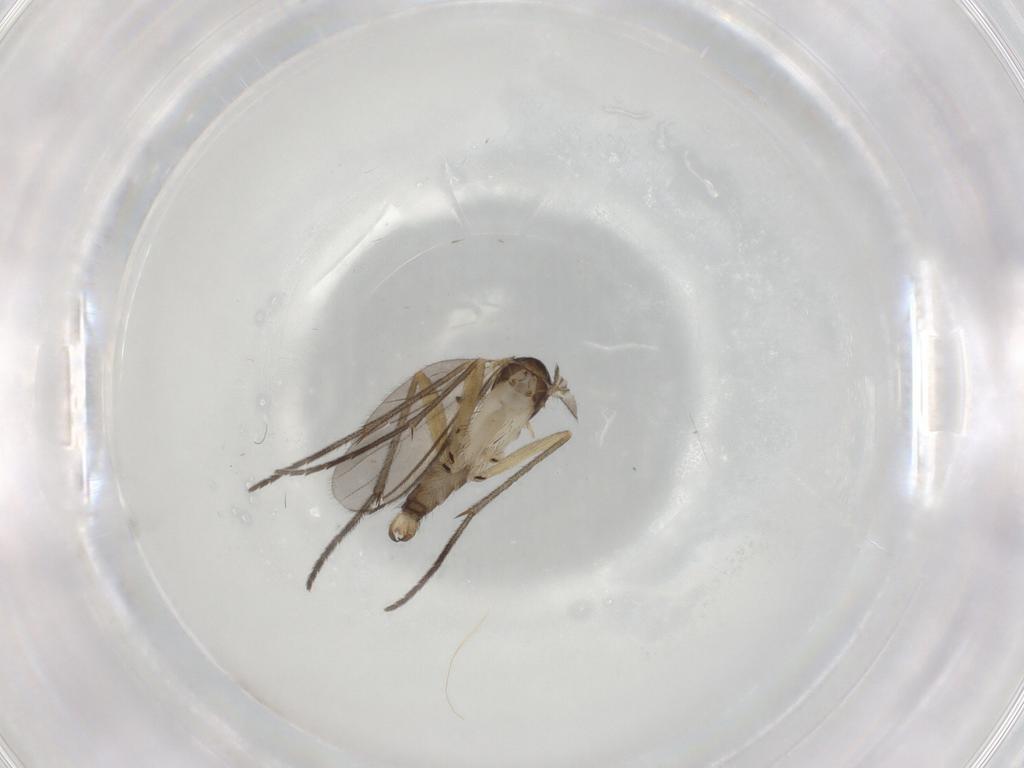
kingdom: Animalia
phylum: Arthropoda
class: Insecta
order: Diptera
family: Sciaridae
